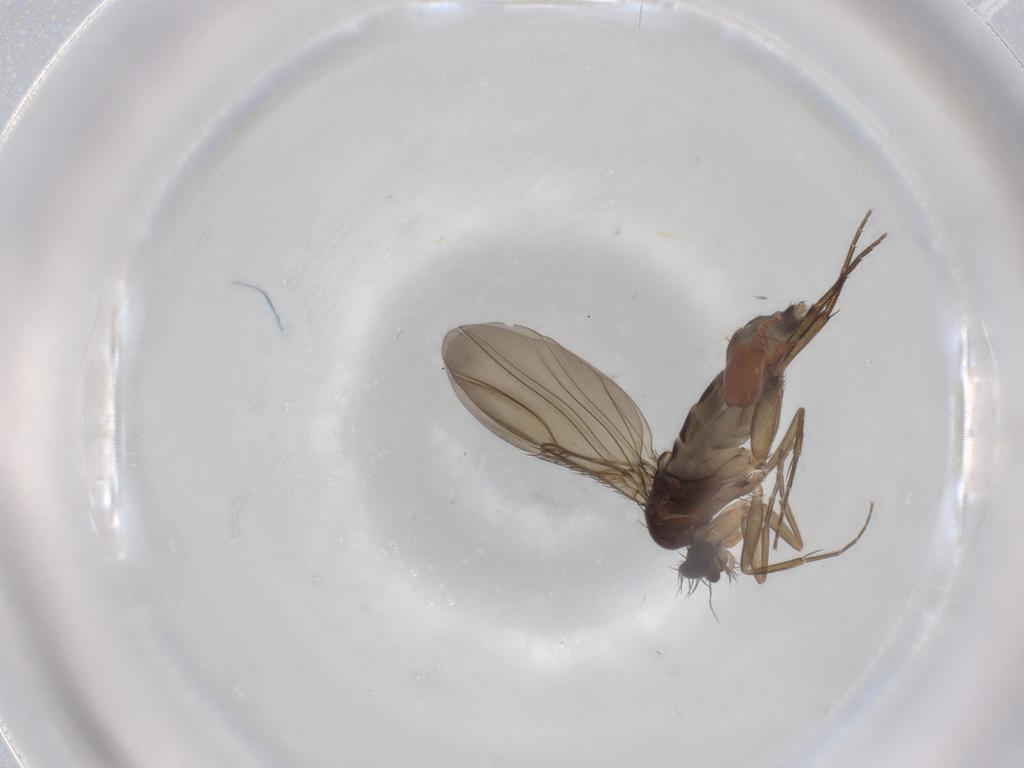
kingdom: Animalia
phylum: Arthropoda
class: Insecta
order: Diptera
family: Phoridae
